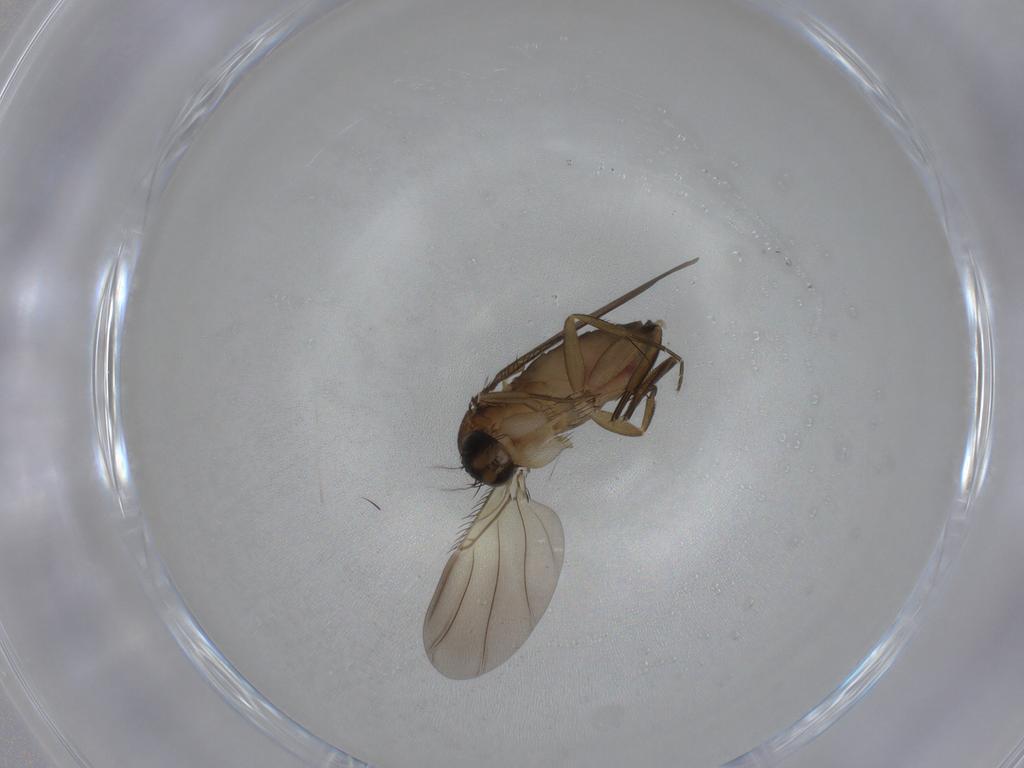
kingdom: Animalia
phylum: Arthropoda
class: Insecta
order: Diptera
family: Phoridae
